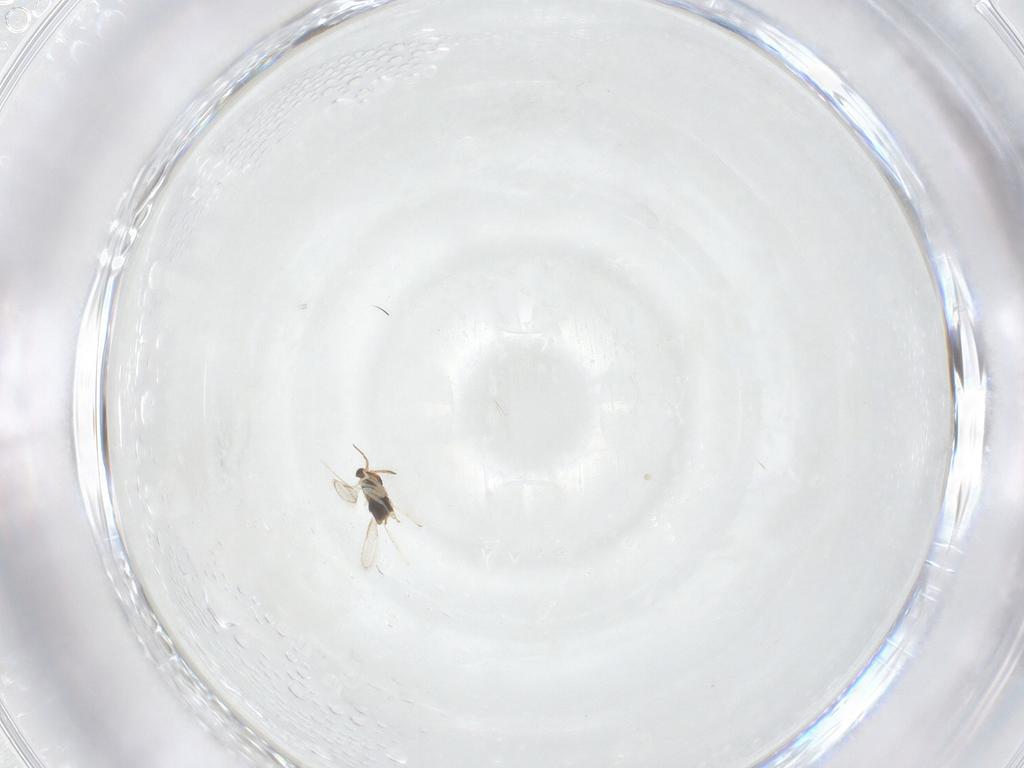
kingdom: Animalia
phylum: Arthropoda
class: Insecta
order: Hymenoptera
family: Aphelinidae
